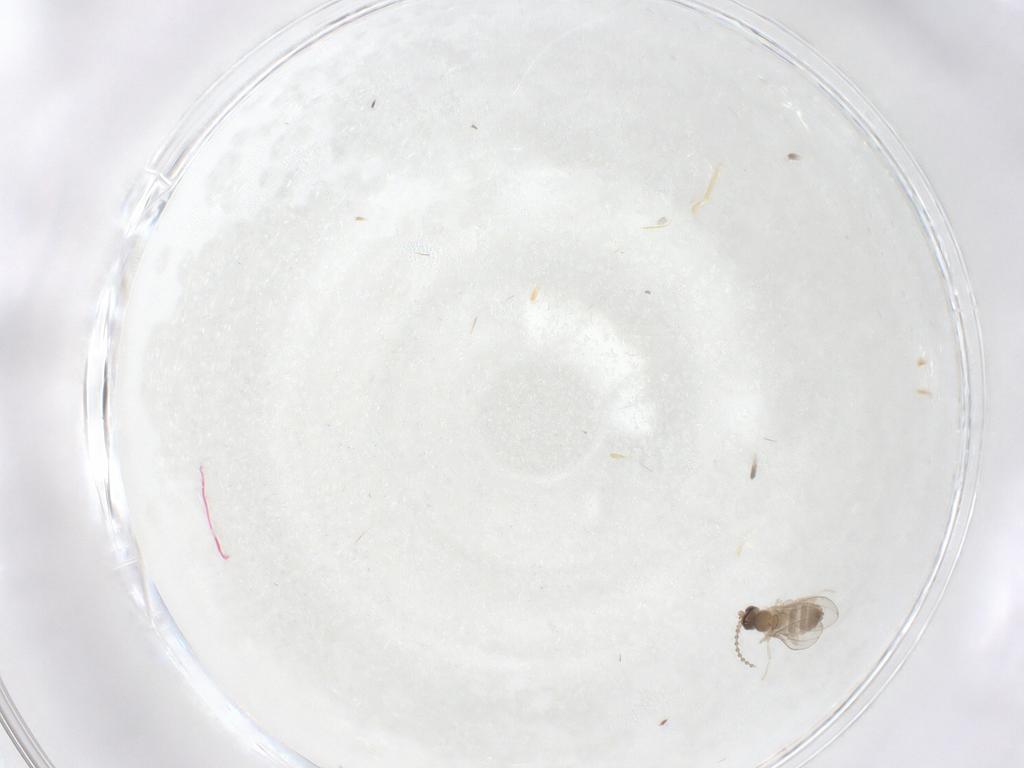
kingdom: Animalia
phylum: Arthropoda
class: Insecta
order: Diptera
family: Cecidomyiidae
